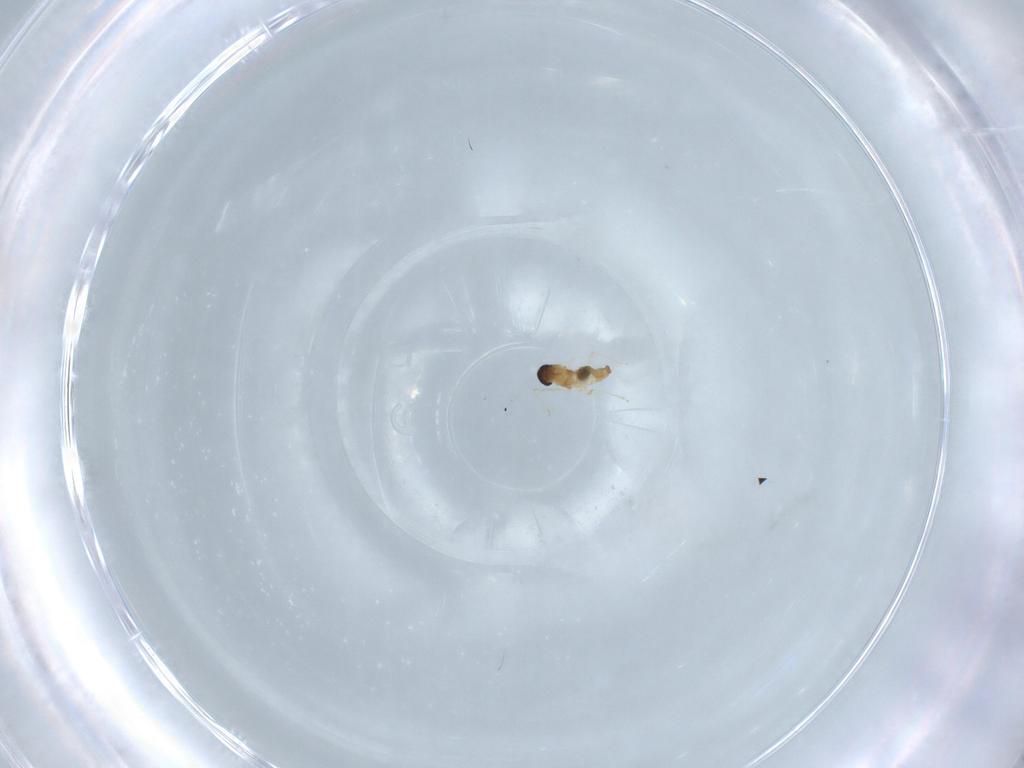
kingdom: Animalia
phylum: Arthropoda
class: Insecta
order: Diptera
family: Cecidomyiidae
